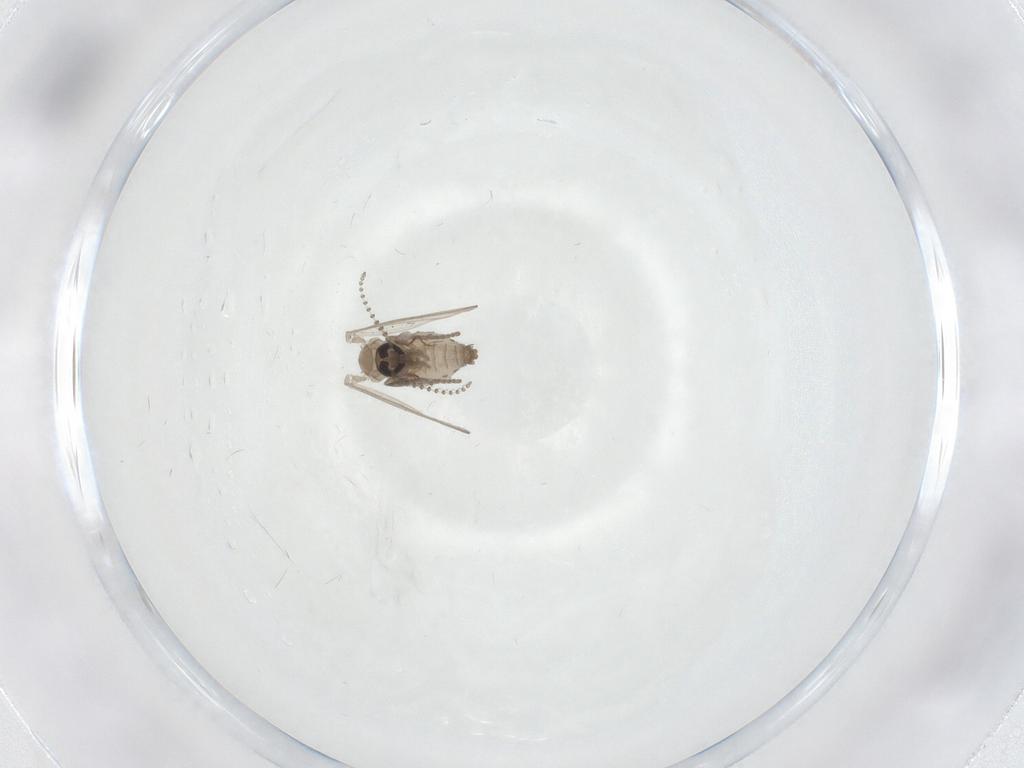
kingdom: Animalia
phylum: Arthropoda
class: Insecta
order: Diptera
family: Psychodidae
